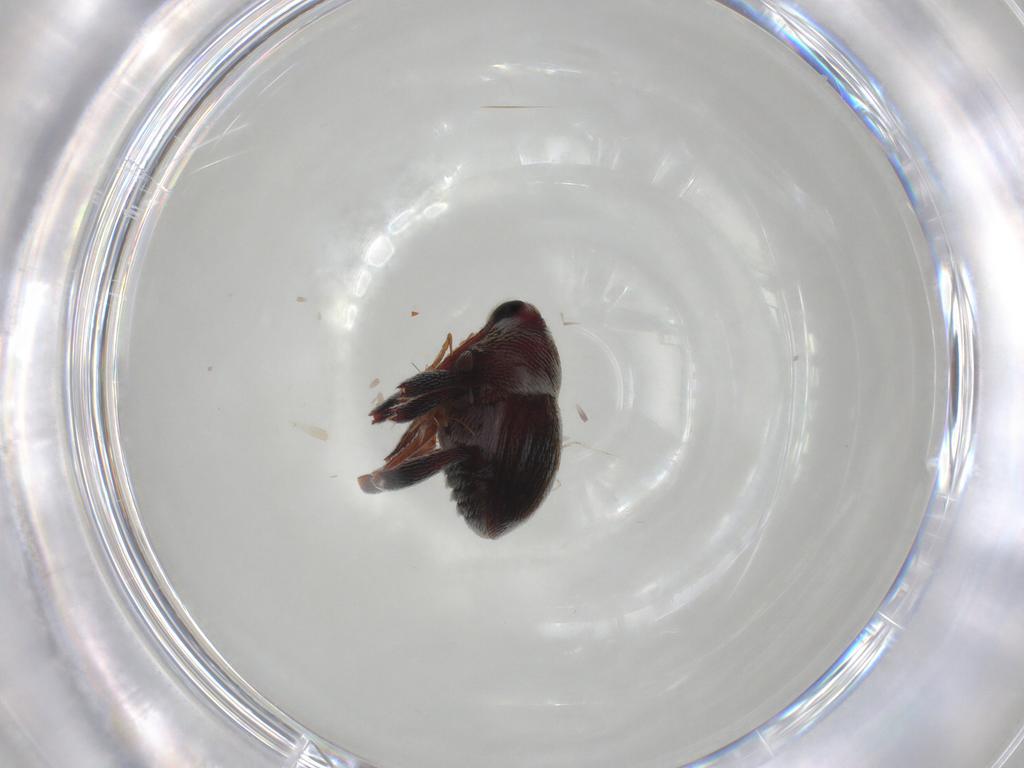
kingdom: Animalia
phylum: Arthropoda
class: Insecta
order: Coleoptera
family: Curculionidae
